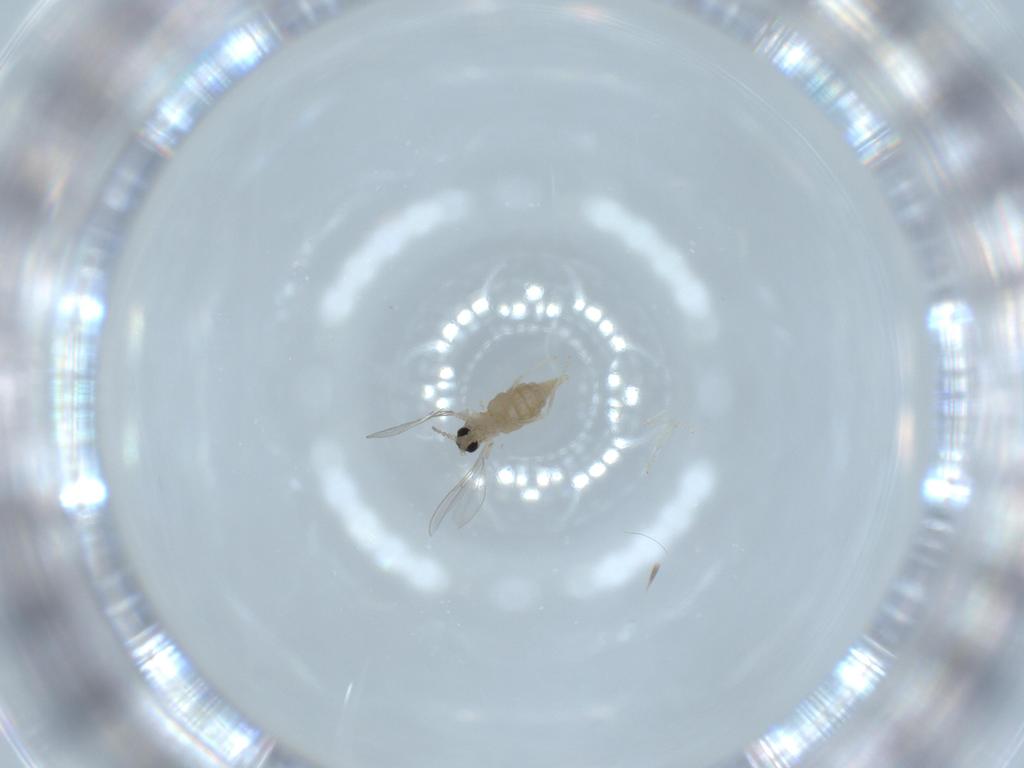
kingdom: Animalia
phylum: Arthropoda
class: Insecta
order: Diptera
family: Cecidomyiidae
